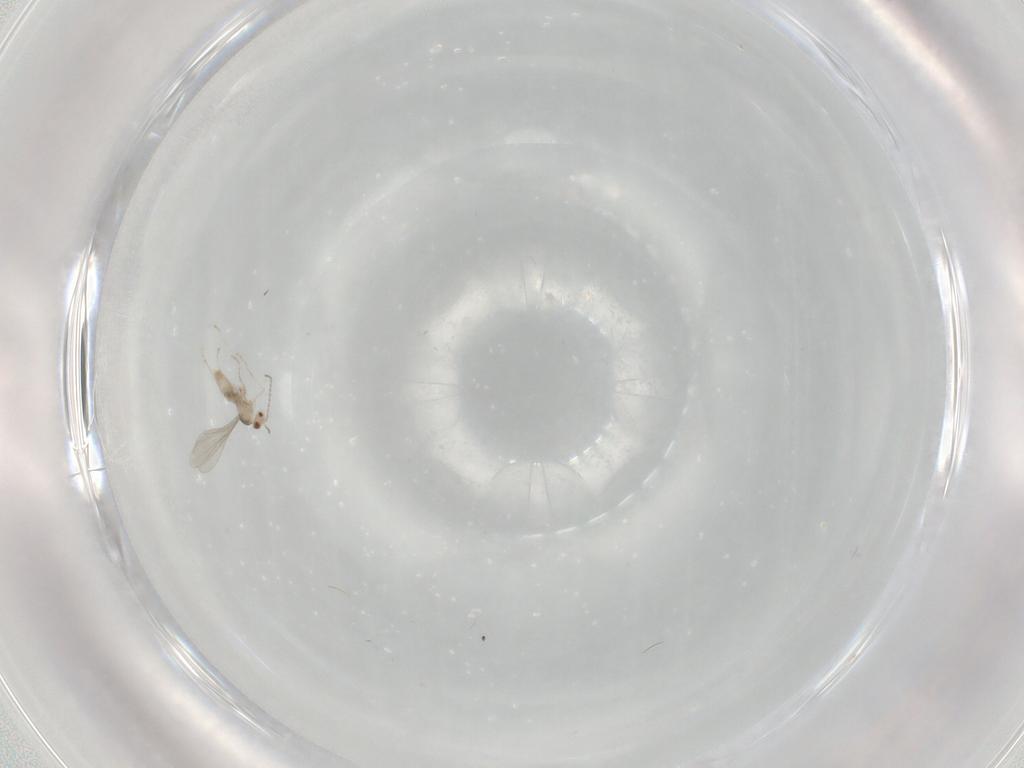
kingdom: Animalia
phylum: Arthropoda
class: Insecta
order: Diptera
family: Cecidomyiidae
